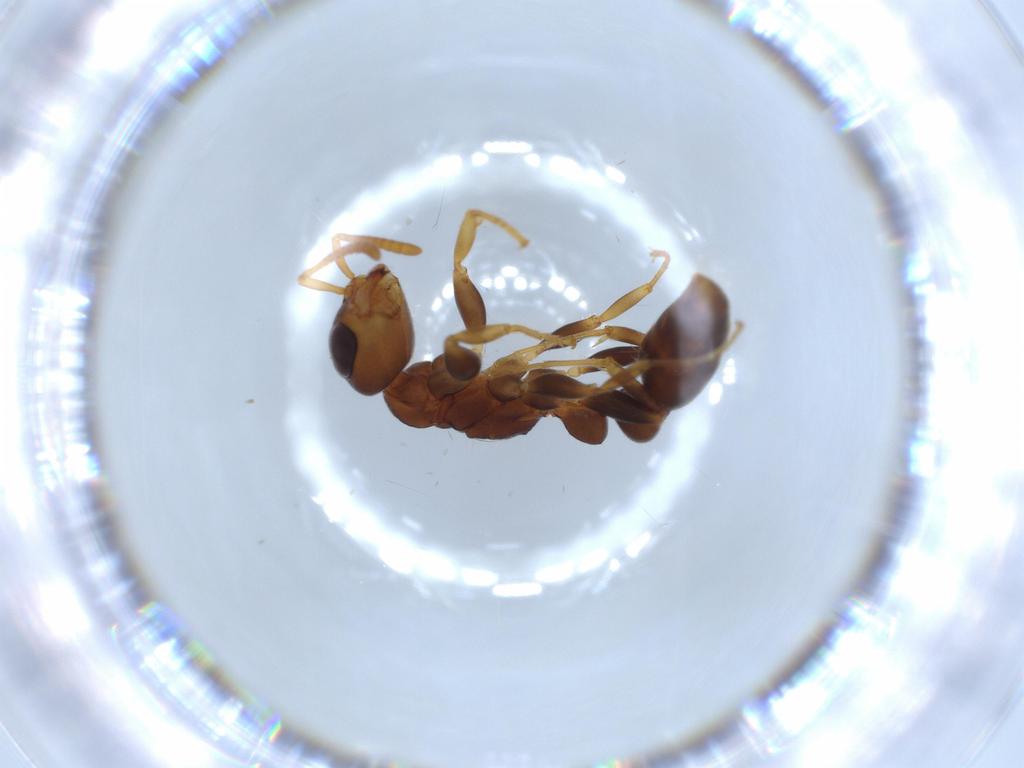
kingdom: Animalia
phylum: Arthropoda
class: Insecta
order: Hymenoptera
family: Formicidae
